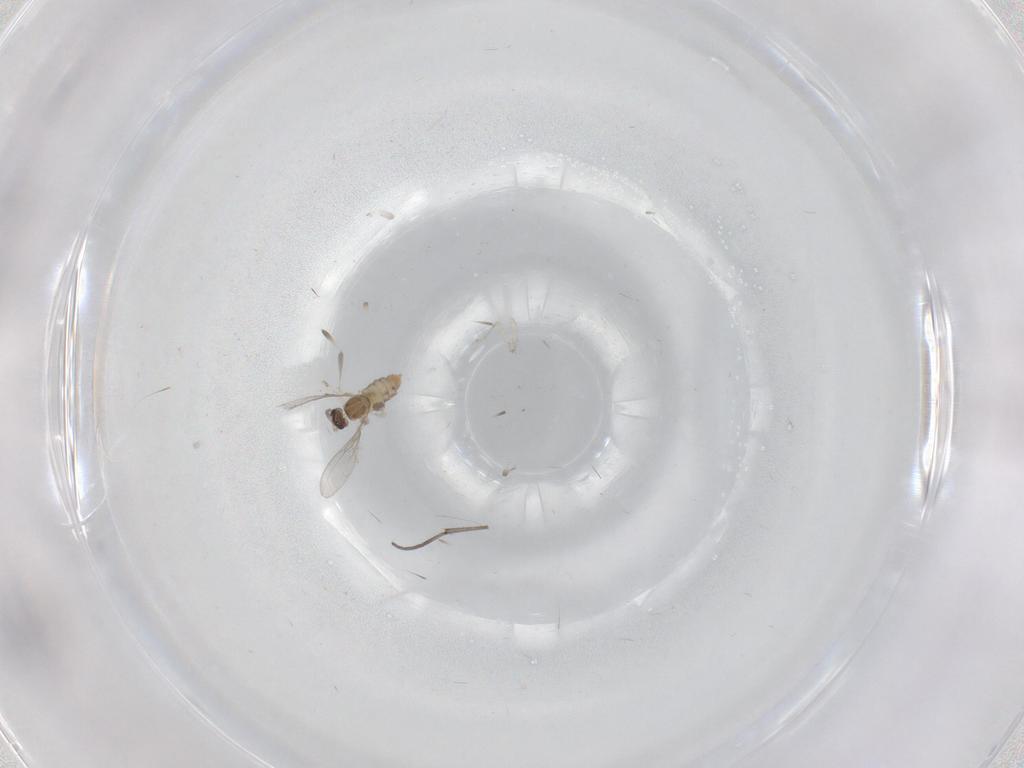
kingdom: Animalia
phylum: Arthropoda
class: Insecta
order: Diptera
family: Cecidomyiidae
